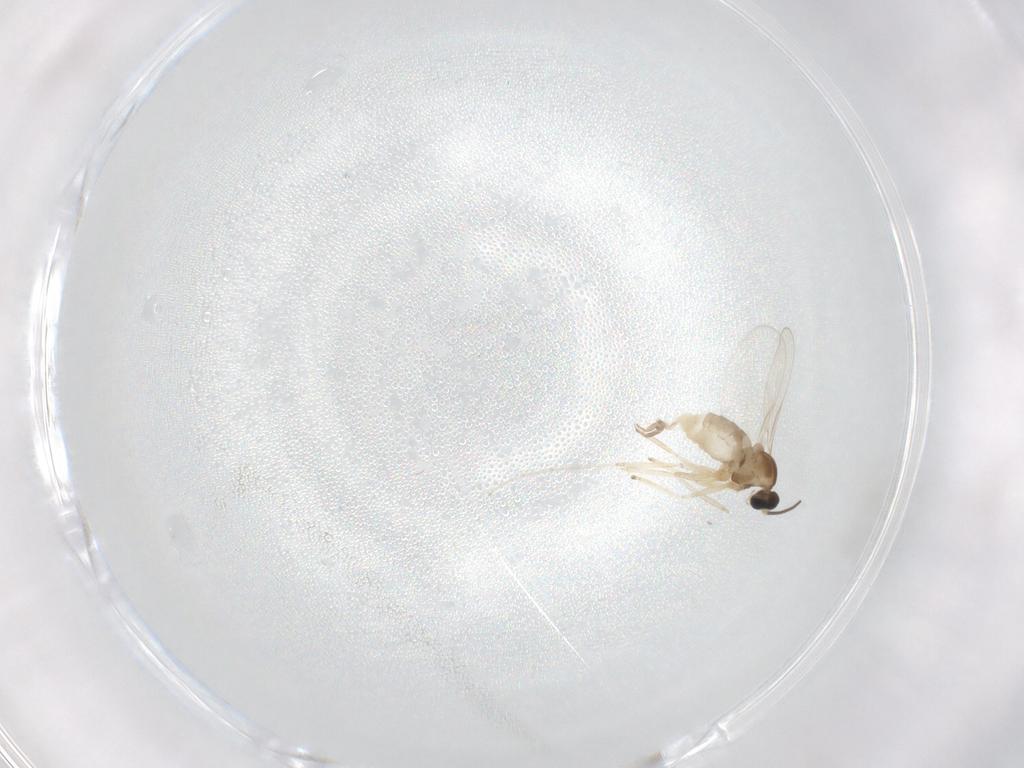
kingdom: Animalia
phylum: Arthropoda
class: Insecta
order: Diptera
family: Cecidomyiidae
